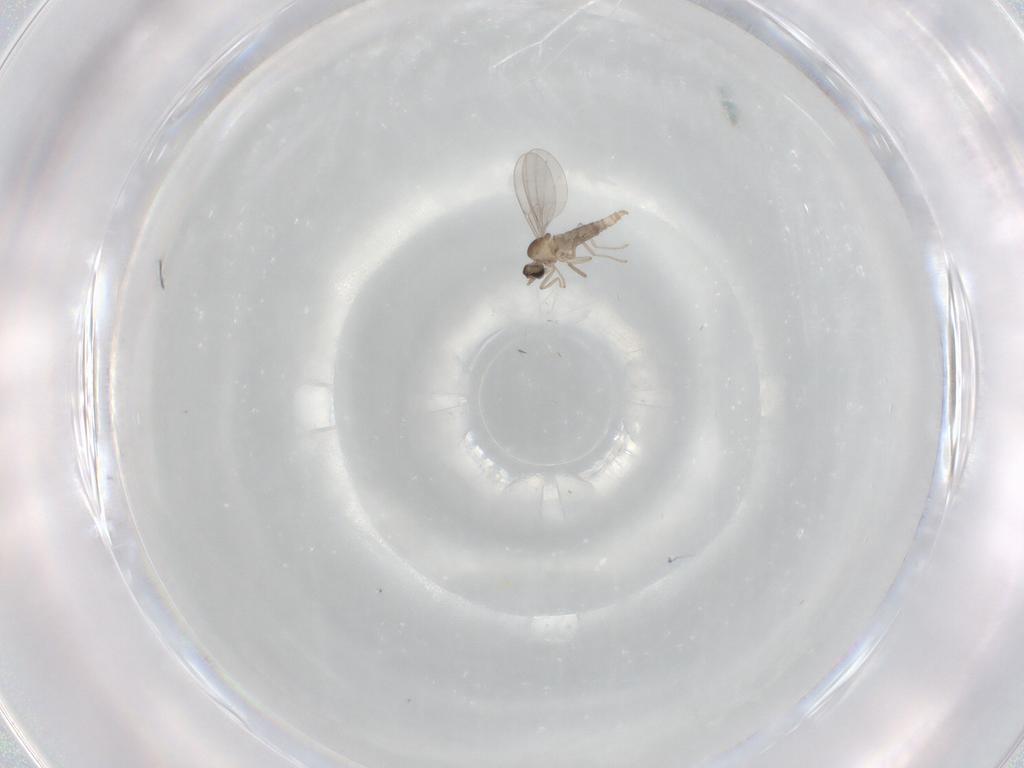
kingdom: Animalia
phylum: Arthropoda
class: Insecta
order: Diptera
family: Cecidomyiidae
